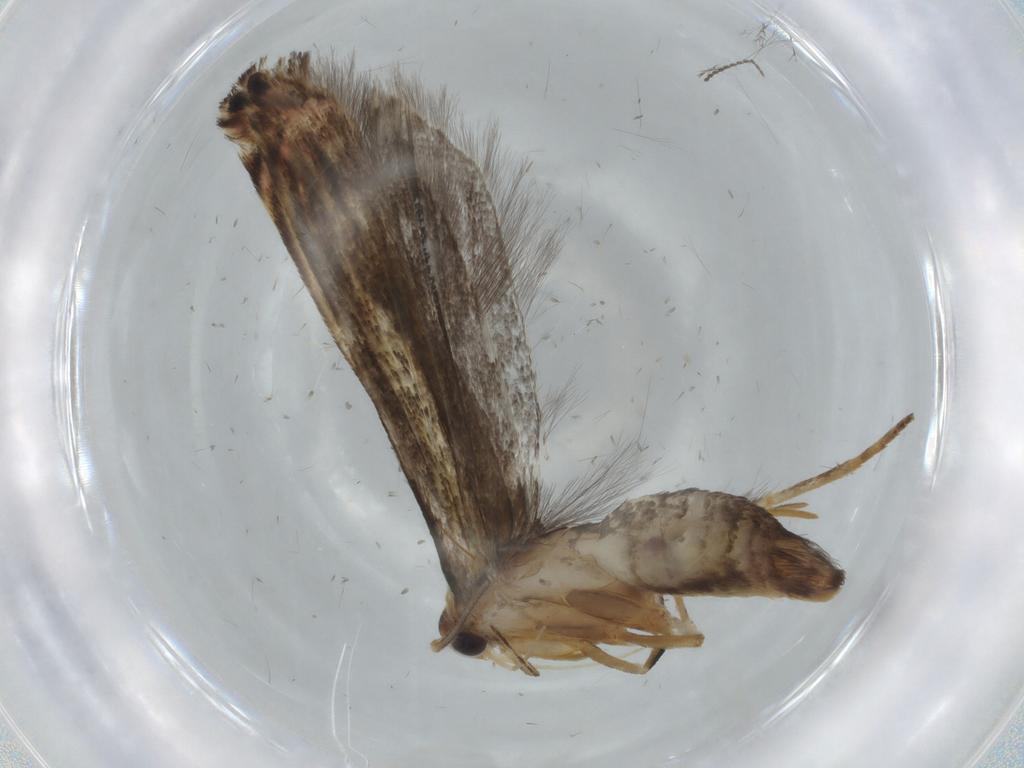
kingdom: Animalia
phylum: Arthropoda
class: Insecta
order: Lepidoptera
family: Gelechiidae
